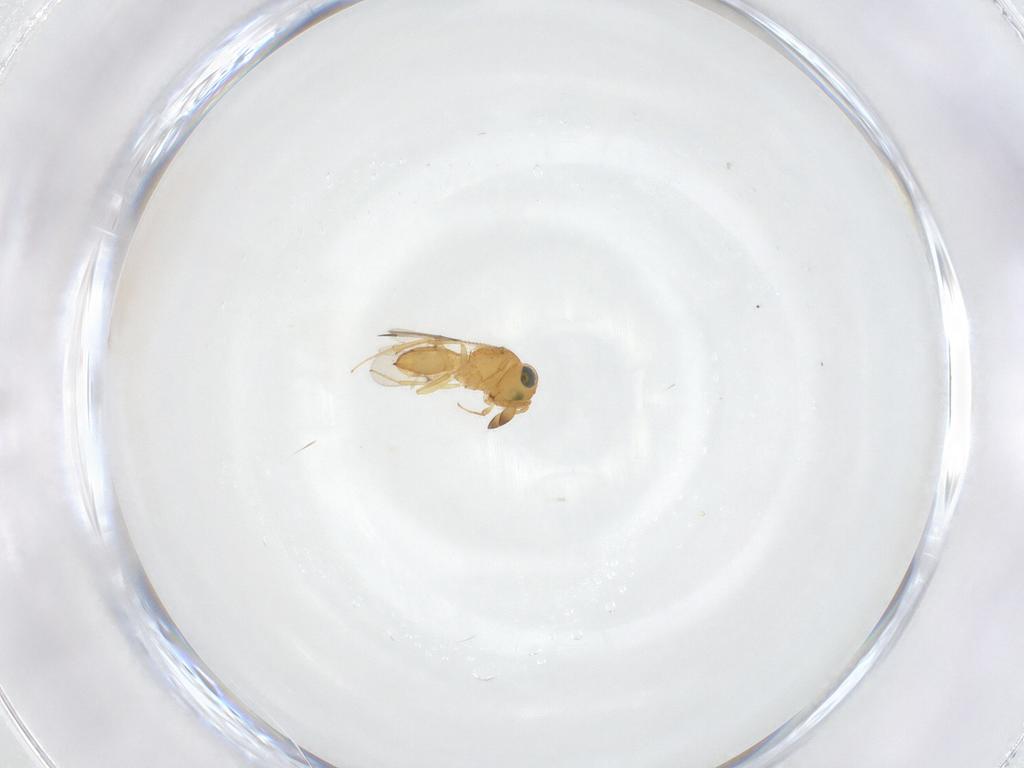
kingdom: Animalia
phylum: Arthropoda
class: Insecta
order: Hymenoptera
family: Scelionidae
